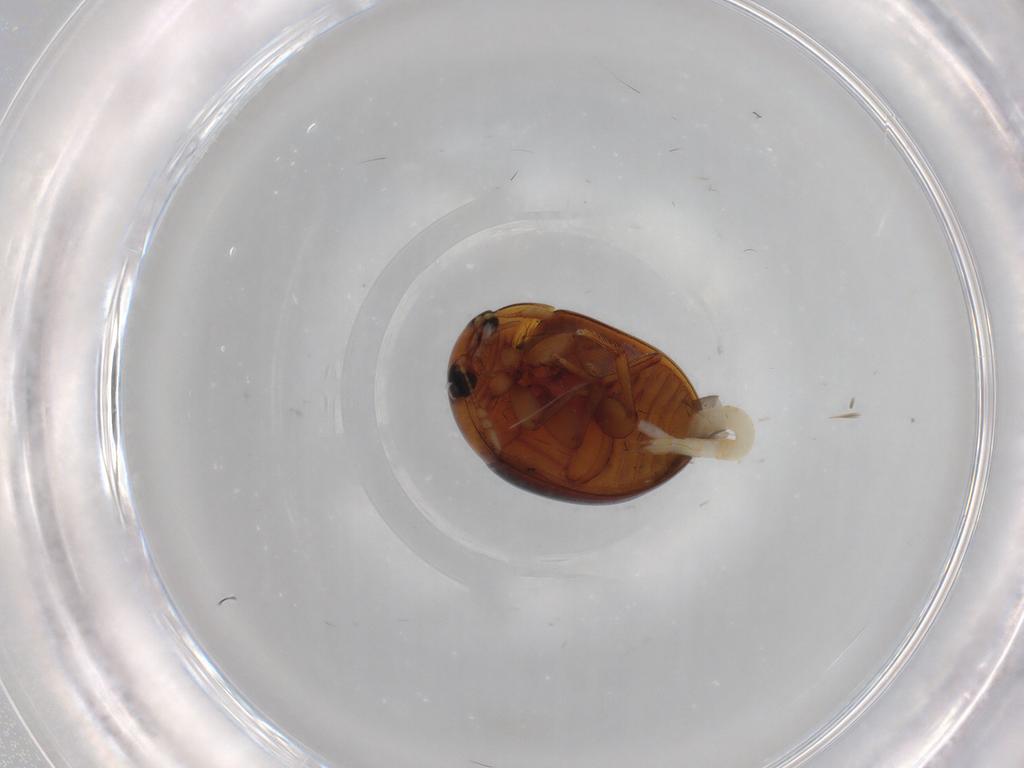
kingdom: Animalia
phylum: Arthropoda
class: Insecta
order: Coleoptera
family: Phalacridae
